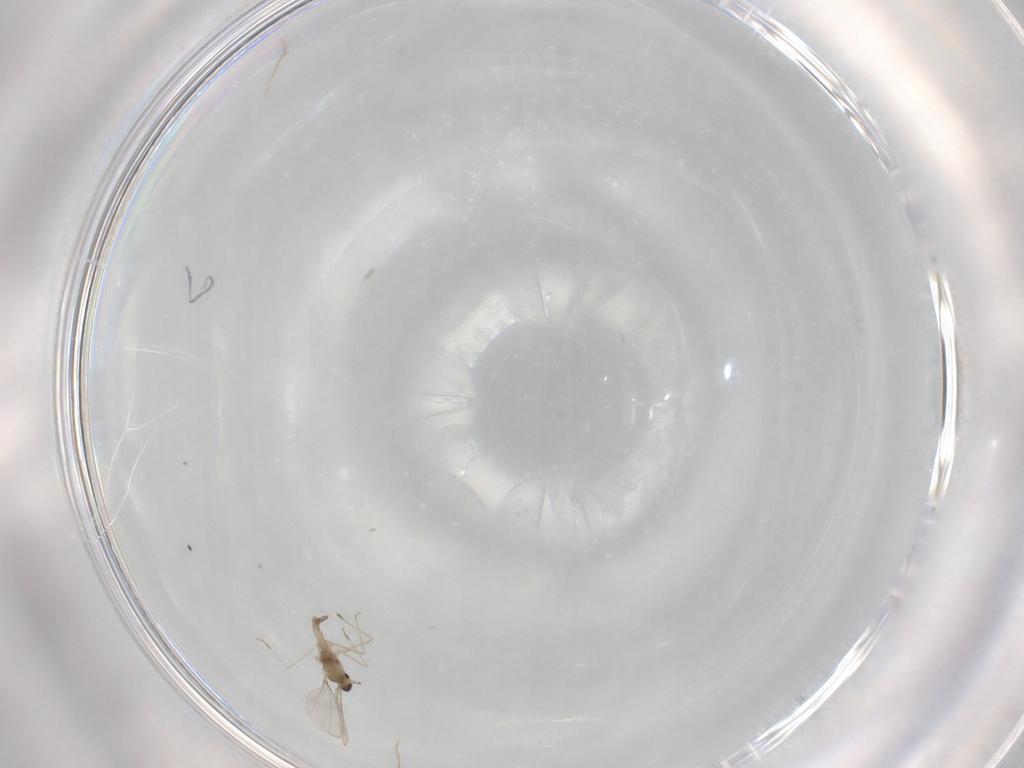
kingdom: Animalia
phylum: Arthropoda
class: Insecta
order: Diptera
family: Cecidomyiidae
